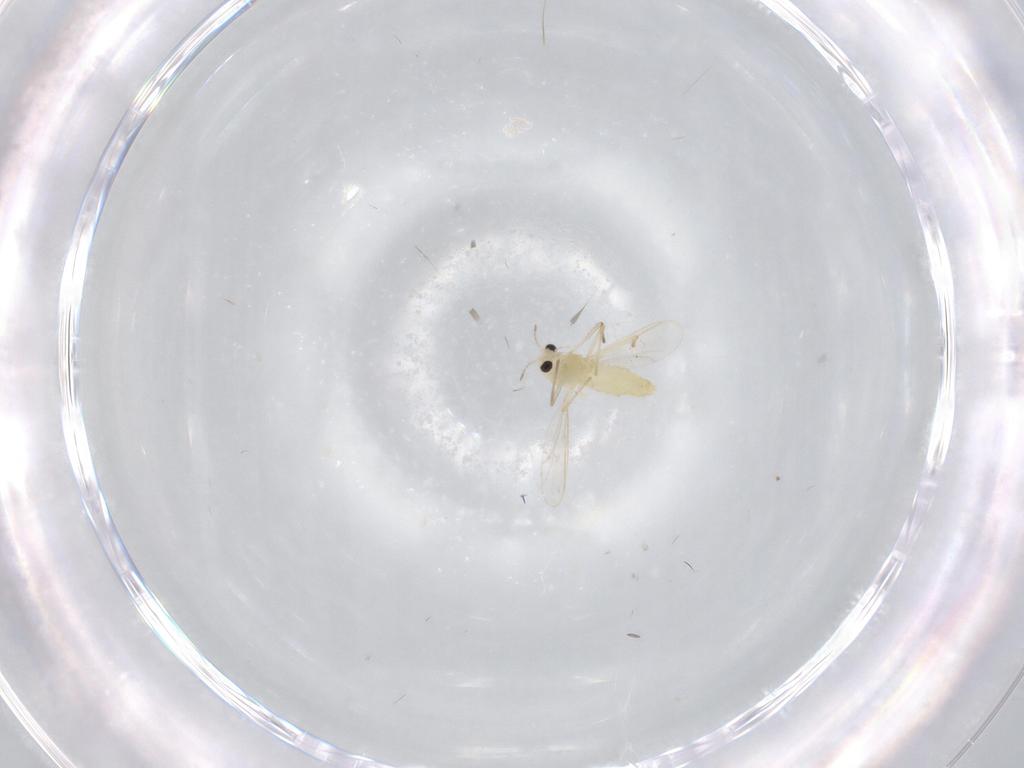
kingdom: Animalia
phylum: Arthropoda
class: Insecta
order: Diptera
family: Chironomidae
